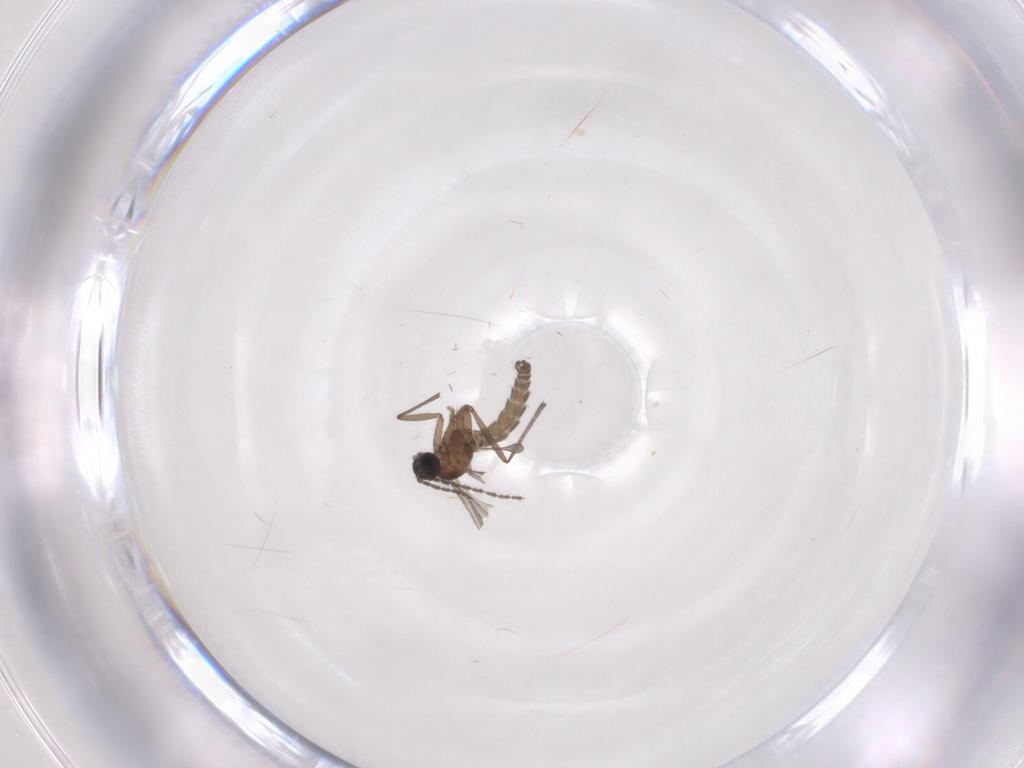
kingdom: Animalia
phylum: Arthropoda
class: Insecta
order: Diptera
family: Sciaridae
